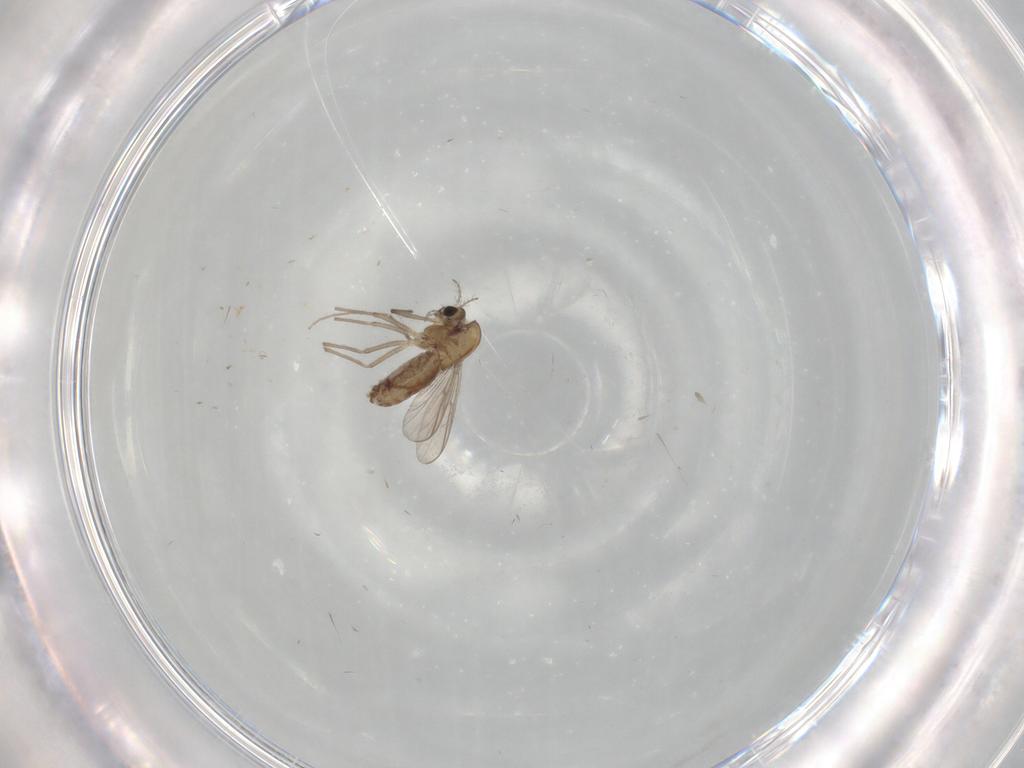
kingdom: Animalia
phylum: Arthropoda
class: Insecta
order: Diptera
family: Chironomidae
